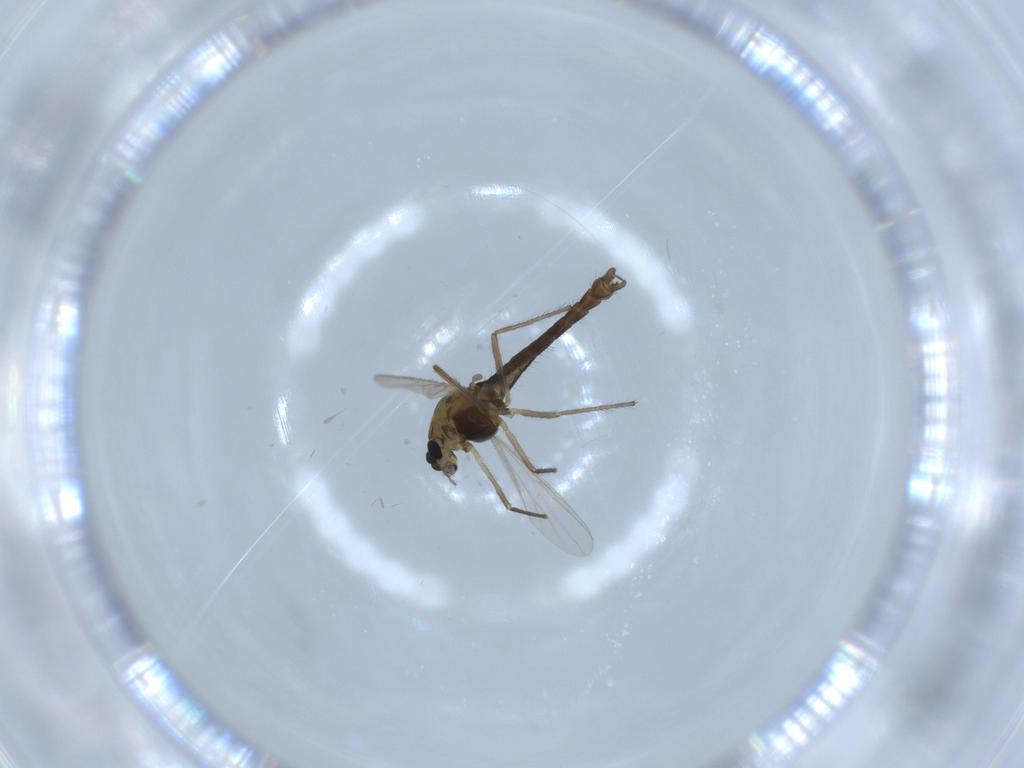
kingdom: Animalia
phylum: Arthropoda
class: Insecta
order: Diptera
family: Chironomidae
